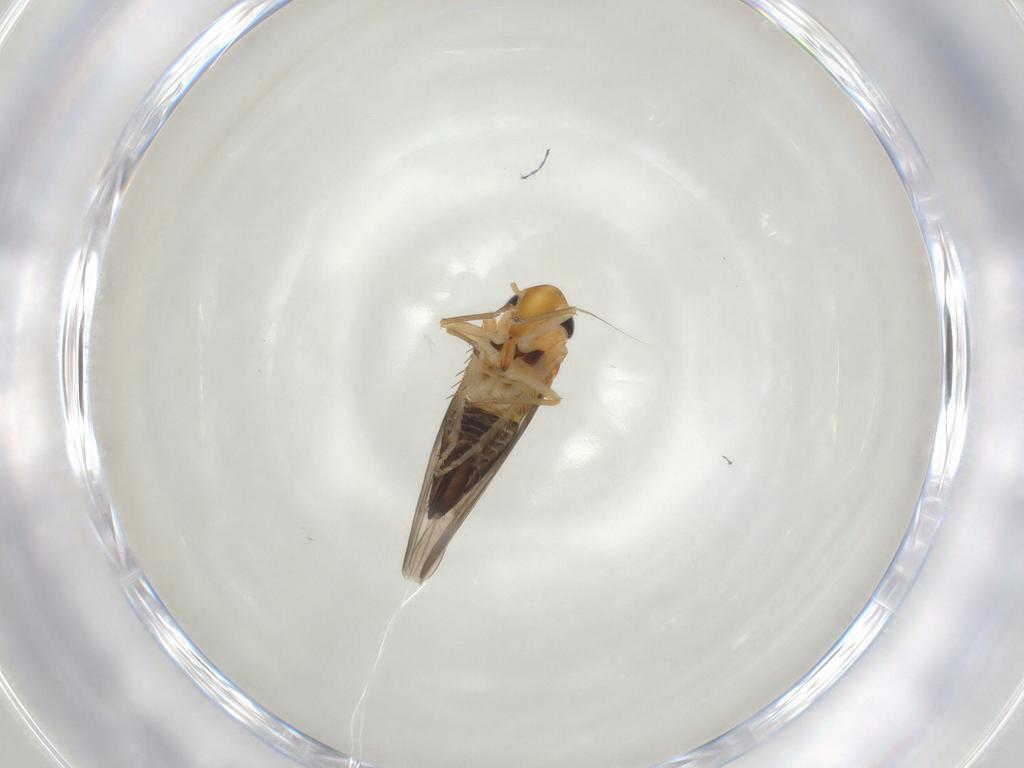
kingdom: Animalia
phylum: Arthropoda
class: Insecta
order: Hemiptera
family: Cicadellidae
